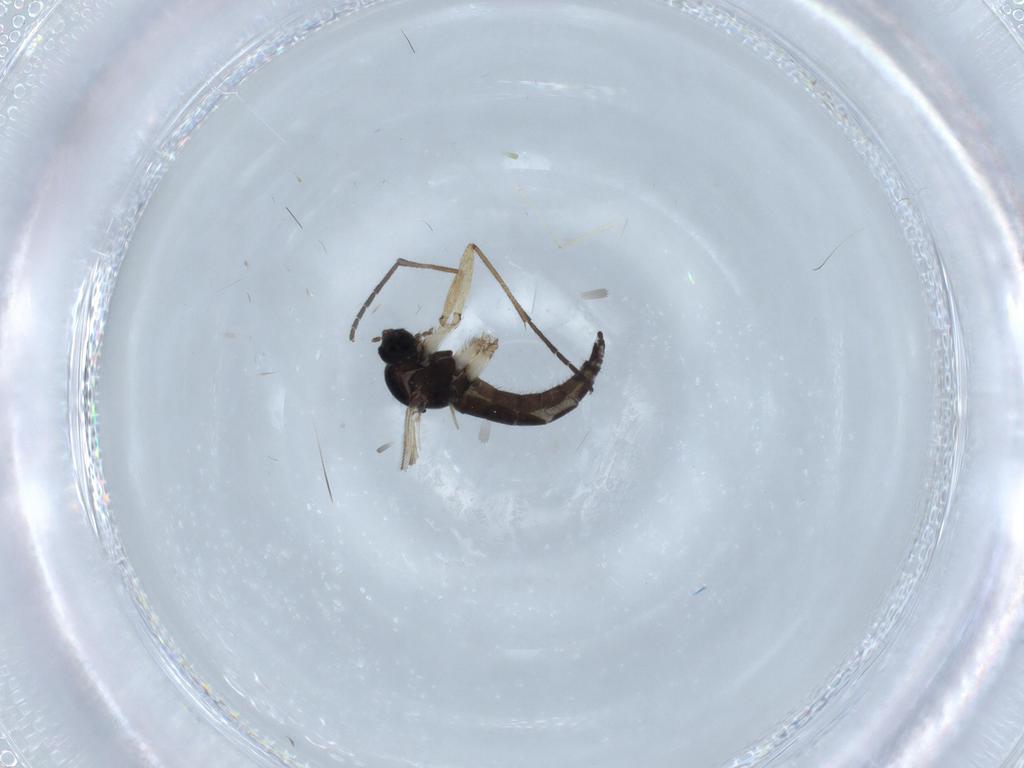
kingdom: Animalia
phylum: Arthropoda
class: Insecta
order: Diptera
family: Sciaridae
